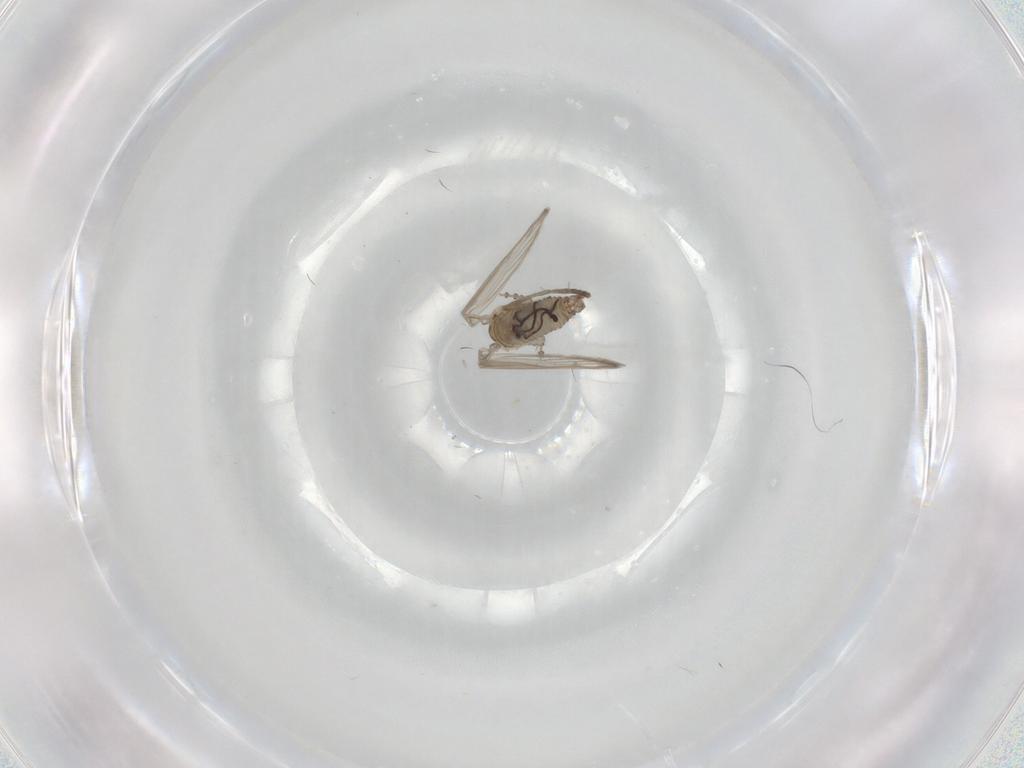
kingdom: Animalia
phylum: Arthropoda
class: Insecta
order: Diptera
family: Psychodidae
